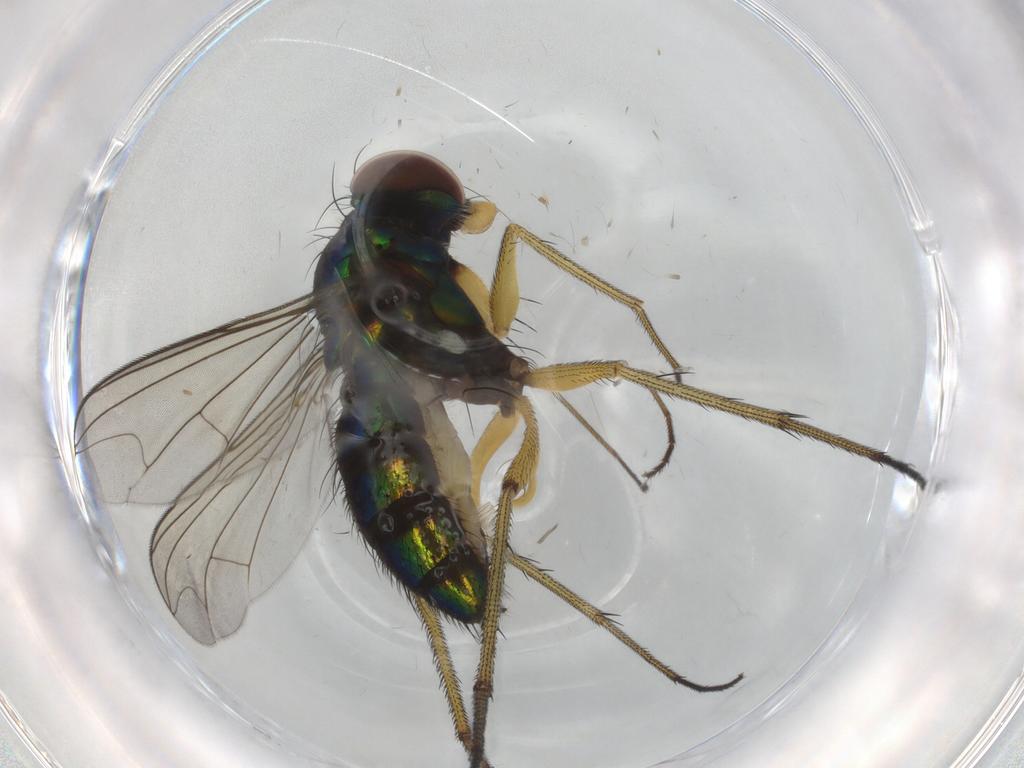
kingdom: Animalia
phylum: Arthropoda
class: Insecta
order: Diptera
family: Dolichopodidae
